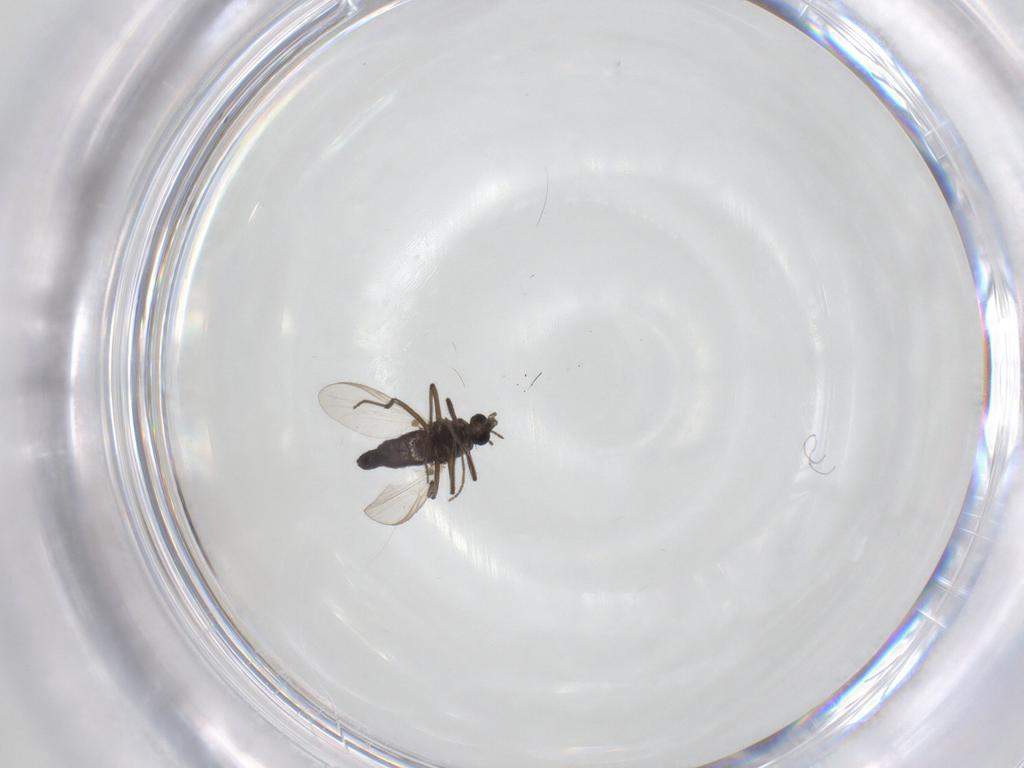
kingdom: Animalia
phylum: Arthropoda
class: Insecta
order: Diptera
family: Chironomidae
